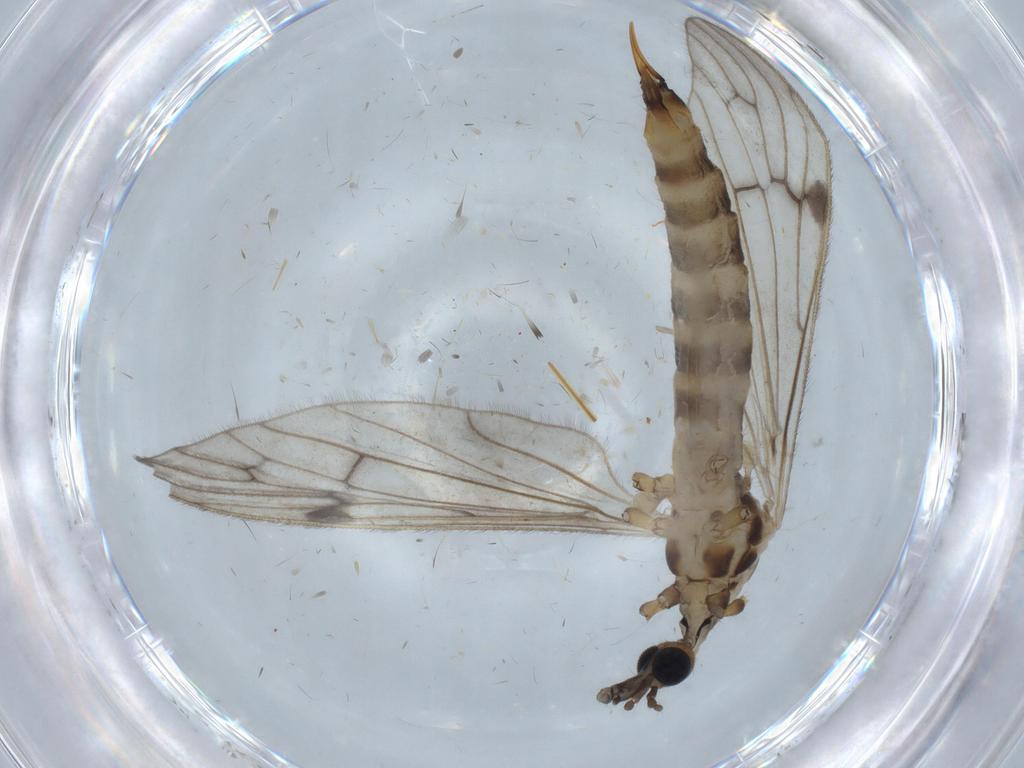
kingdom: Animalia
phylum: Arthropoda
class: Insecta
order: Diptera
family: Chironomidae
